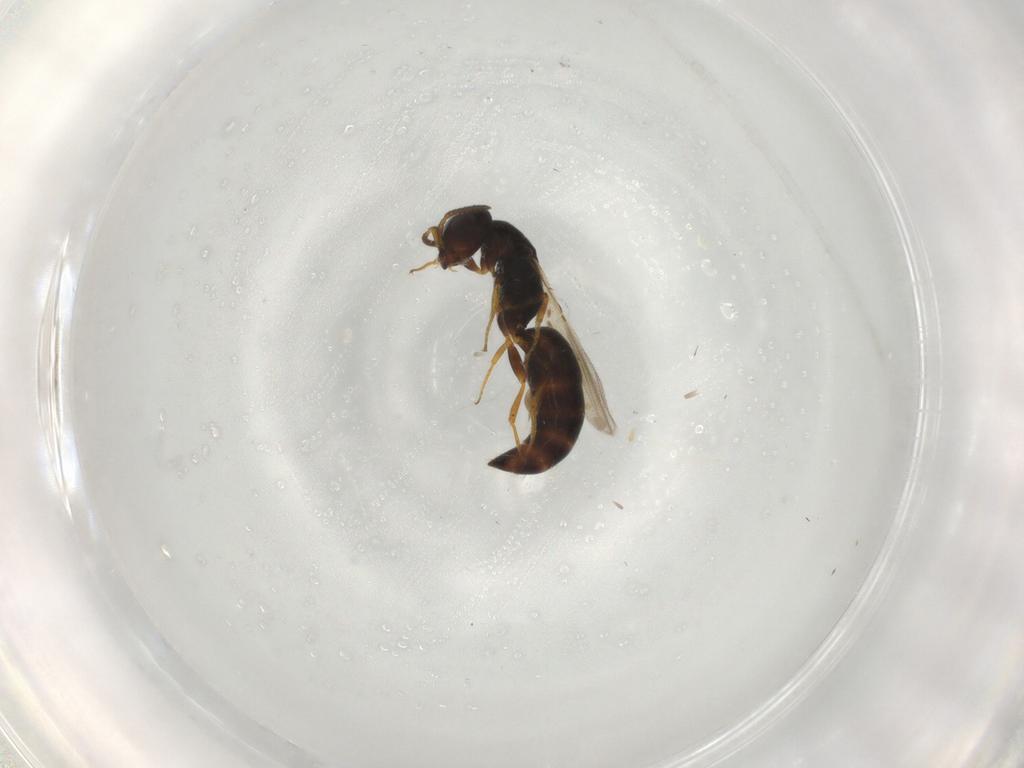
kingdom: Animalia
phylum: Arthropoda
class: Insecta
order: Hymenoptera
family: Bethylidae
